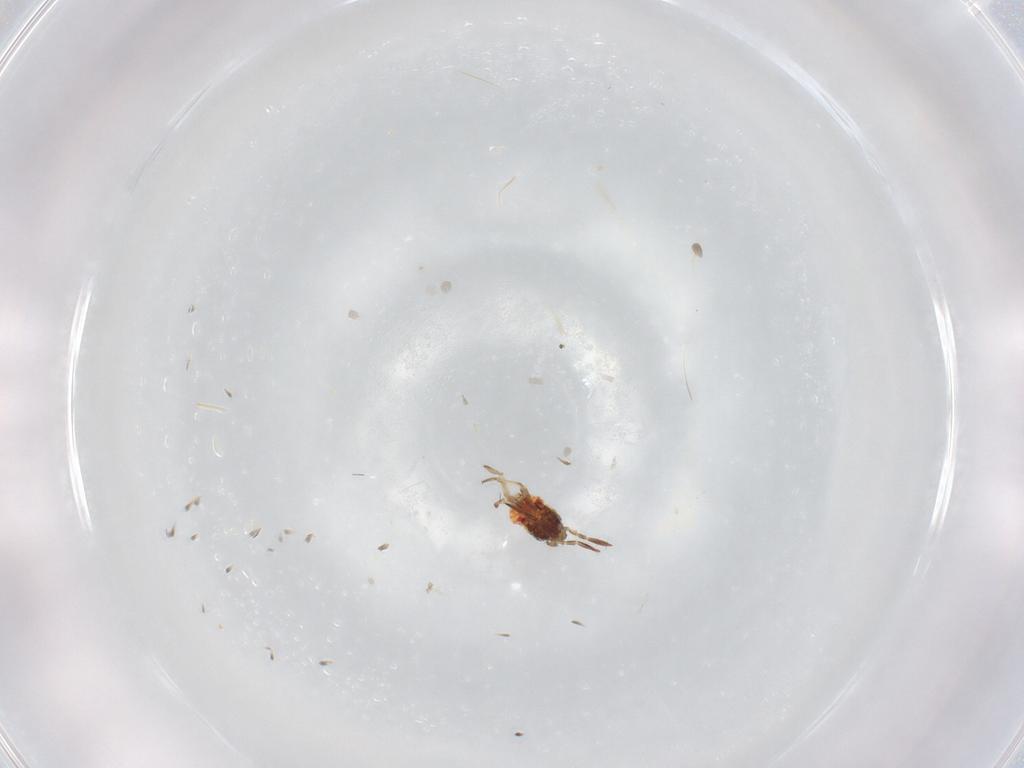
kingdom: Animalia
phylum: Arthropoda
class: Insecta
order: Hemiptera
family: Lygaeidae
